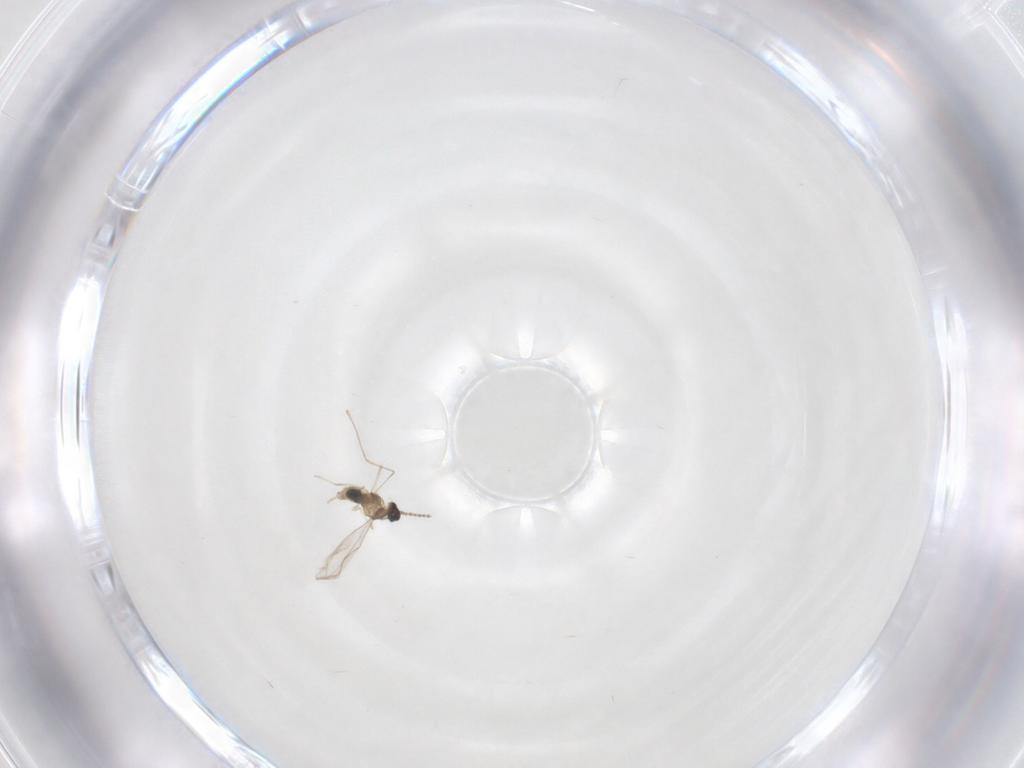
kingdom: Animalia
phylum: Arthropoda
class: Insecta
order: Diptera
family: Cecidomyiidae
